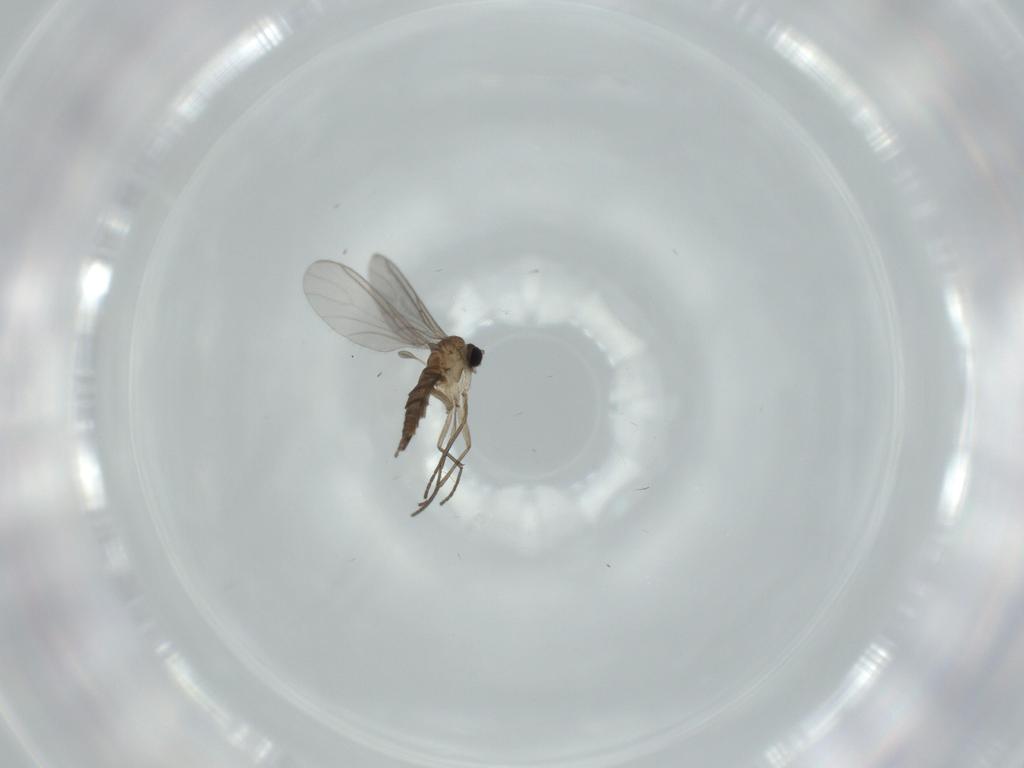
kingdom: Animalia
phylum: Arthropoda
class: Insecta
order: Diptera
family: Sciaridae
